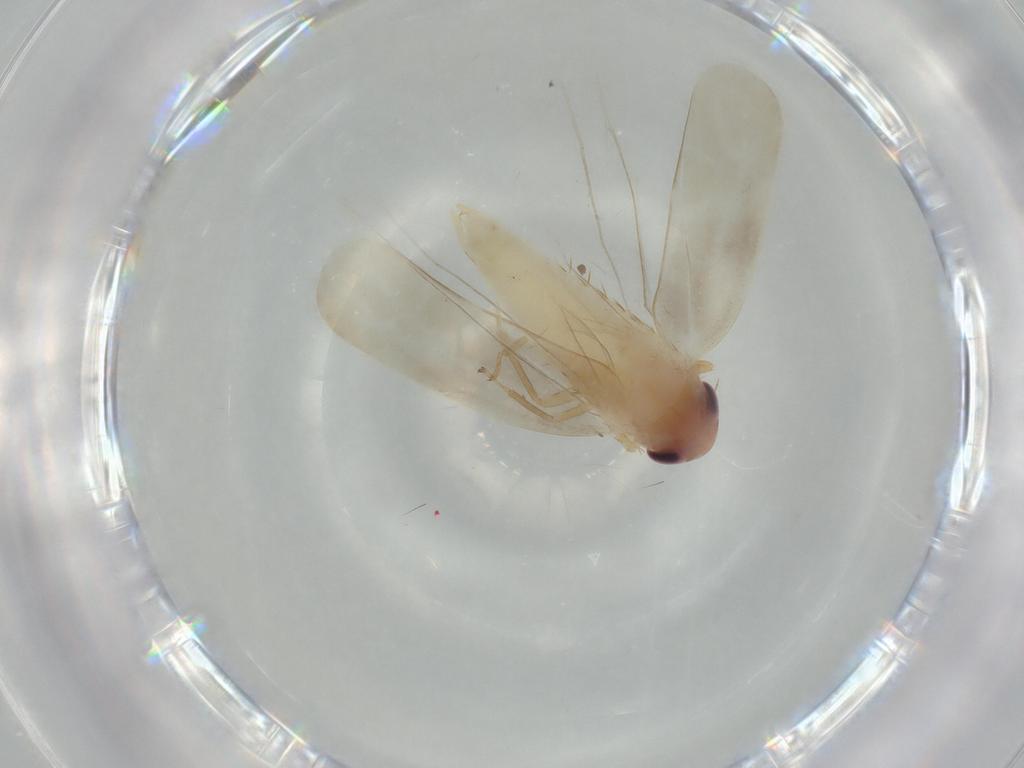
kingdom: Animalia
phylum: Arthropoda
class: Insecta
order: Hemiptera
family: Cicadellidae
